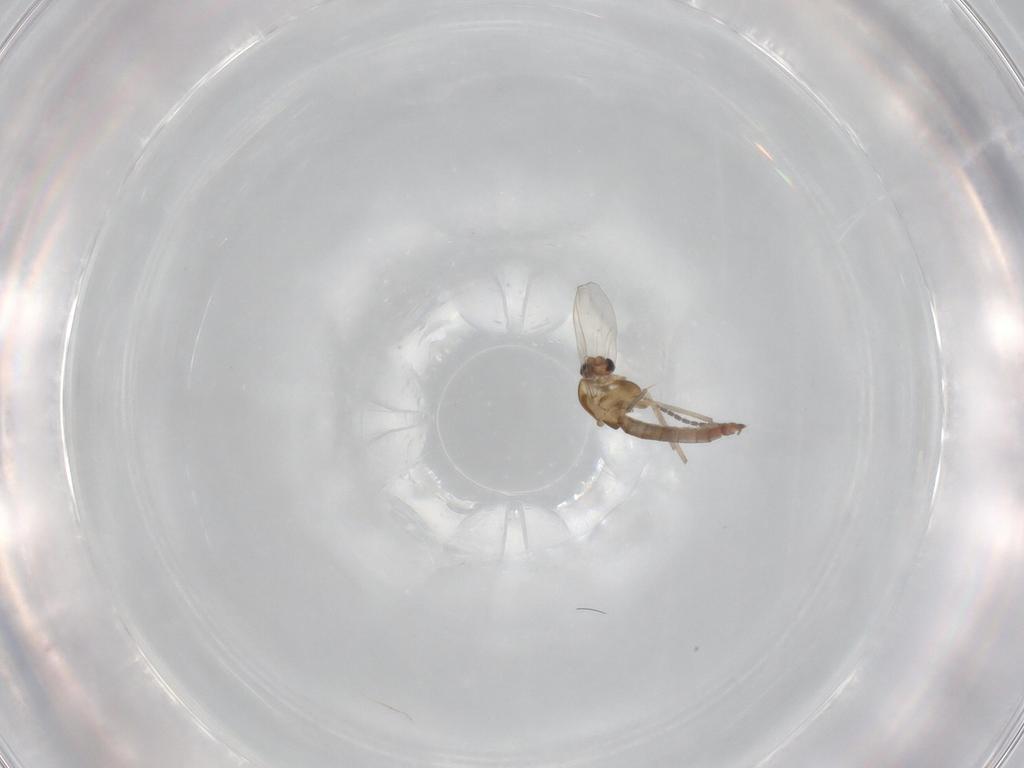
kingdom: Animalia
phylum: Arthropoda
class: Insecta
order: Diptera
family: Chironomidae
